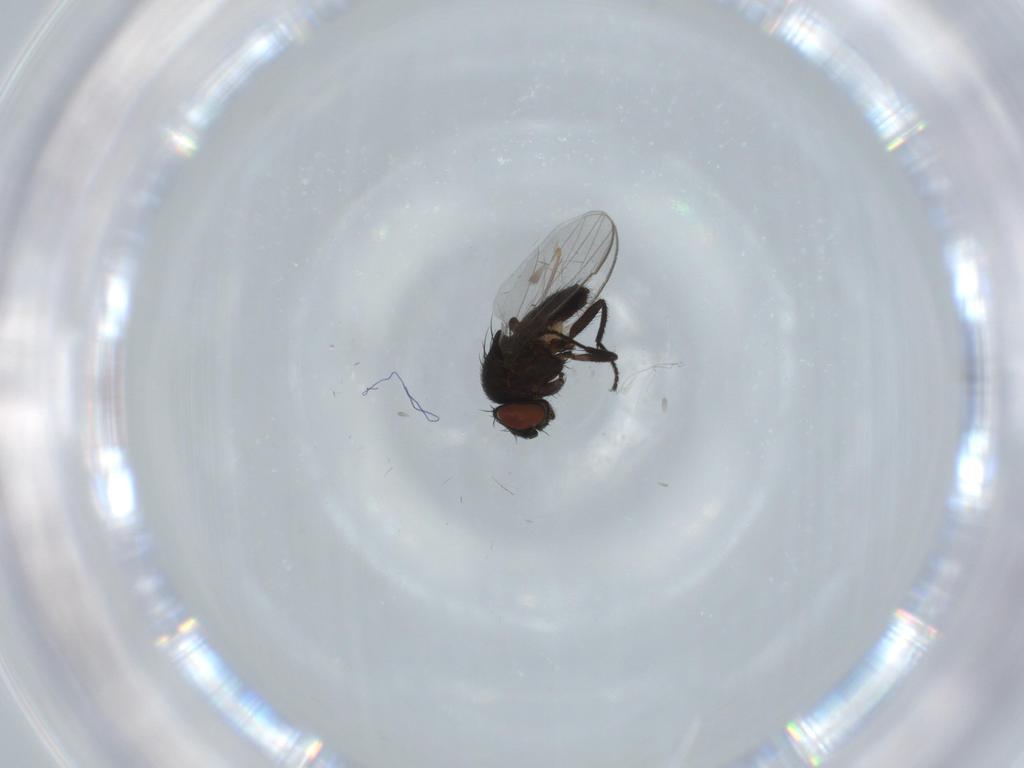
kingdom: Animalia
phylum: Arthropoda
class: Insecta
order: Diptera
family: Milichiidae
